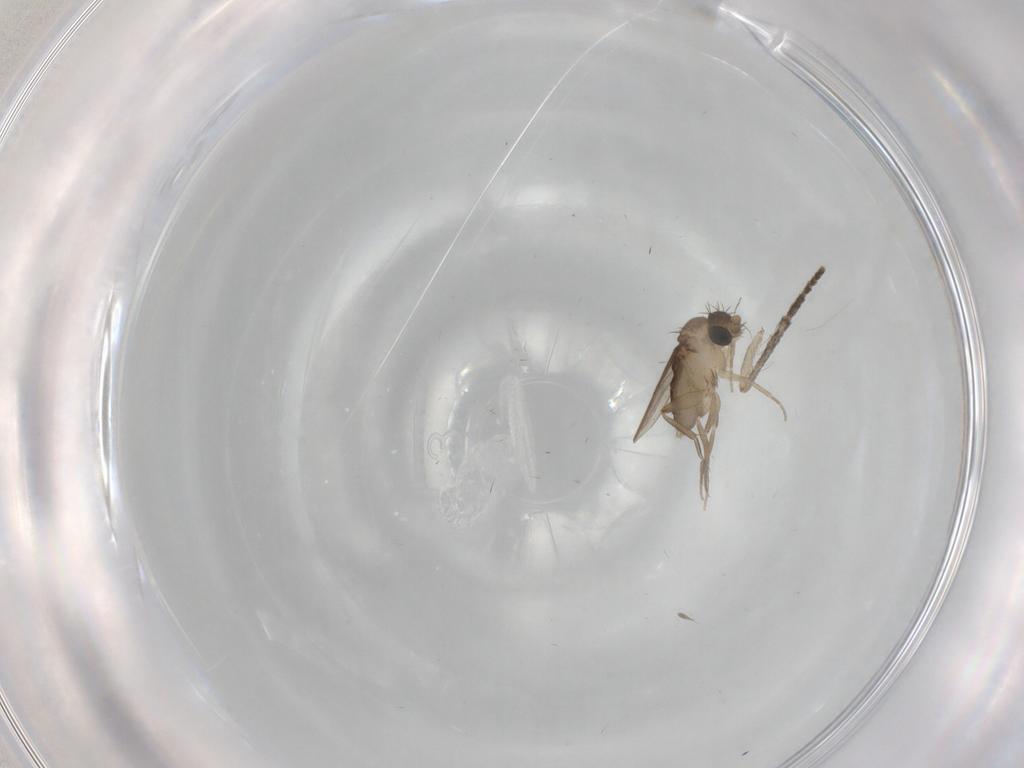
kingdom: Animalia
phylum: Arthropoda
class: Insecta
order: Diptera
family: Psychodidae
